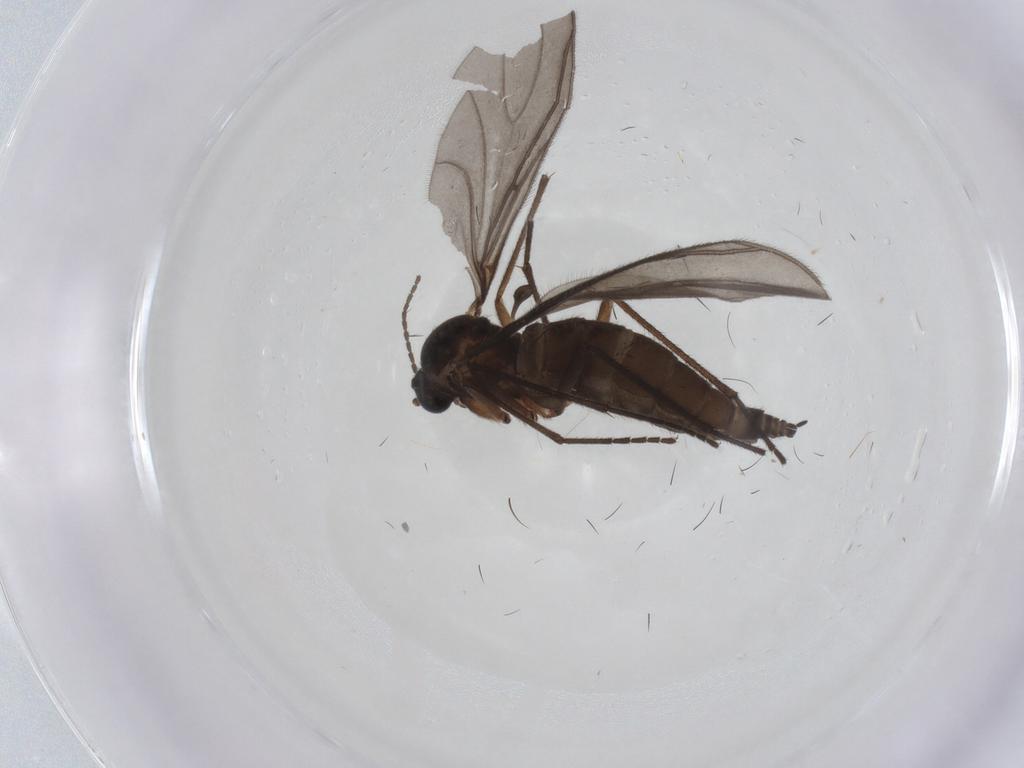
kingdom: Animalia
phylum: Arthropoda
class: Insecta
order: Diptera
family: Sciaridae
